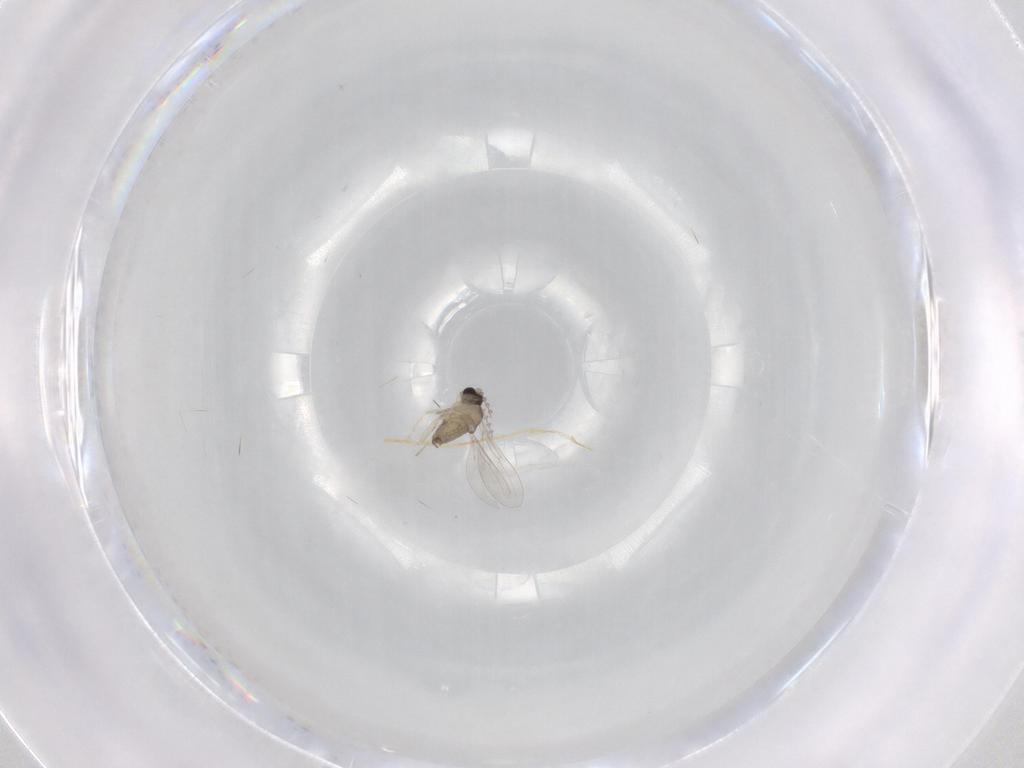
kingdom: Animalia
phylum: Arthropoda
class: Insecta
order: Diptera
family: Cecidomyiidae
